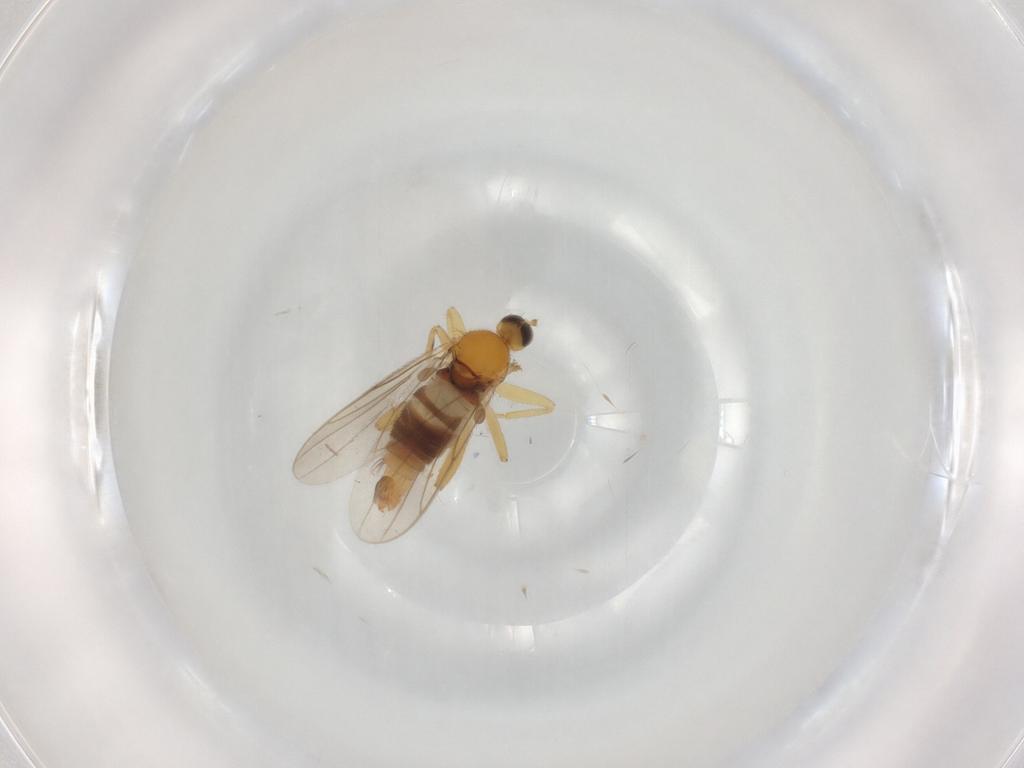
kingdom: Animalia
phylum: Arthropoda
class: Insecta
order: Diptera
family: Hybotidae
